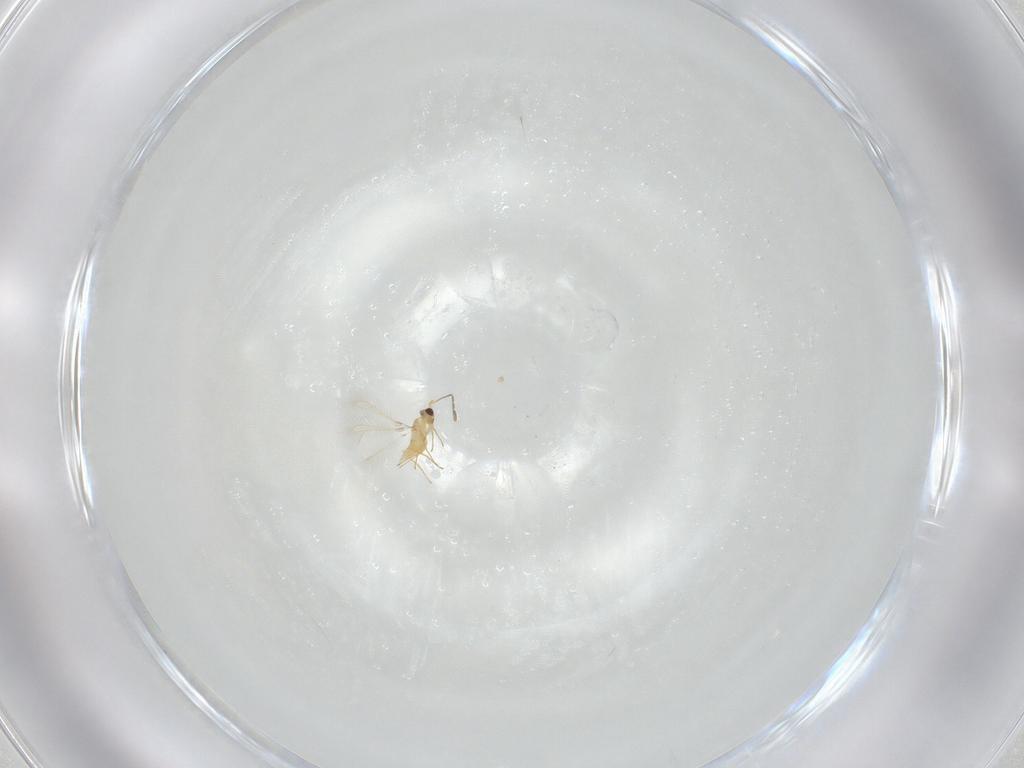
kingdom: Animalia
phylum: Arthropoda
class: Insecta
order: Hymenoptera
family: Mymaridae
